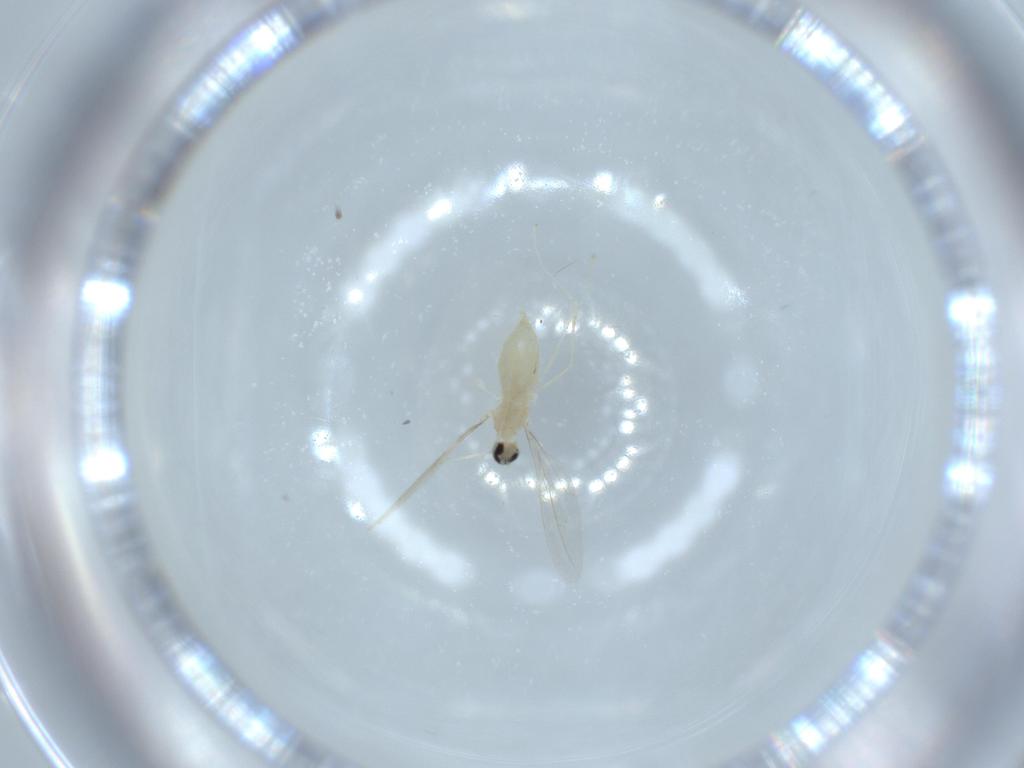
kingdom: Animalia
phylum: Arthropoda
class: Insecta
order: Diptera
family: Cecidomyiidae
